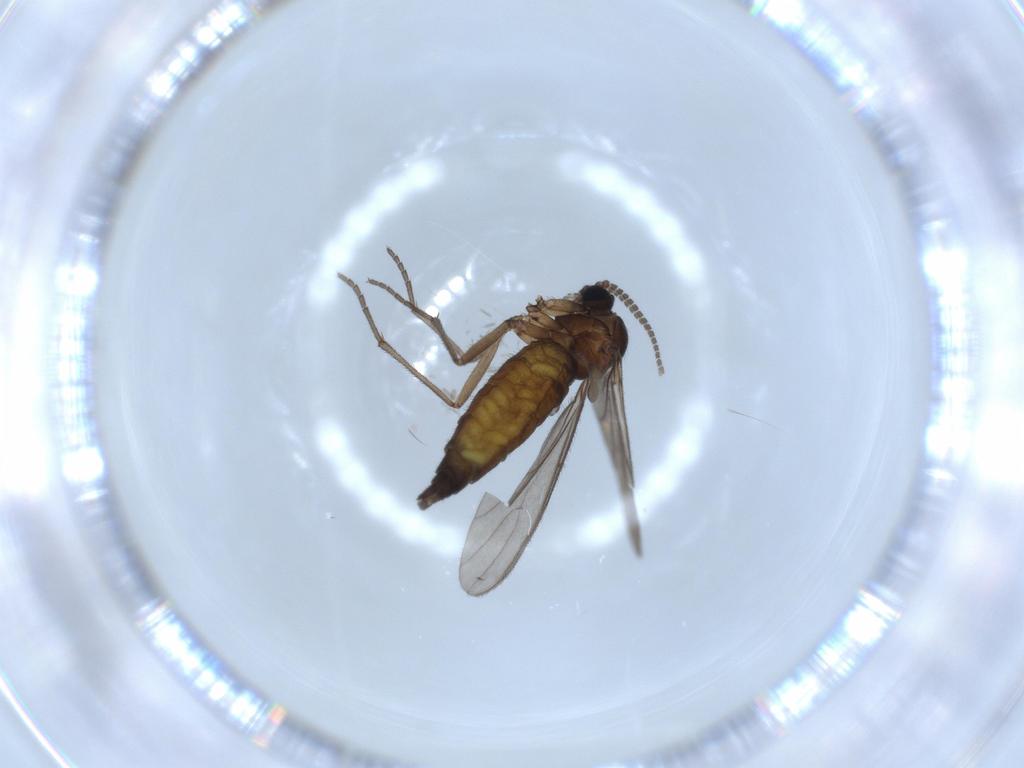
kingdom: Animalia
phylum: Arthropoda
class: Insecta
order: Diptera
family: Sciaridae
